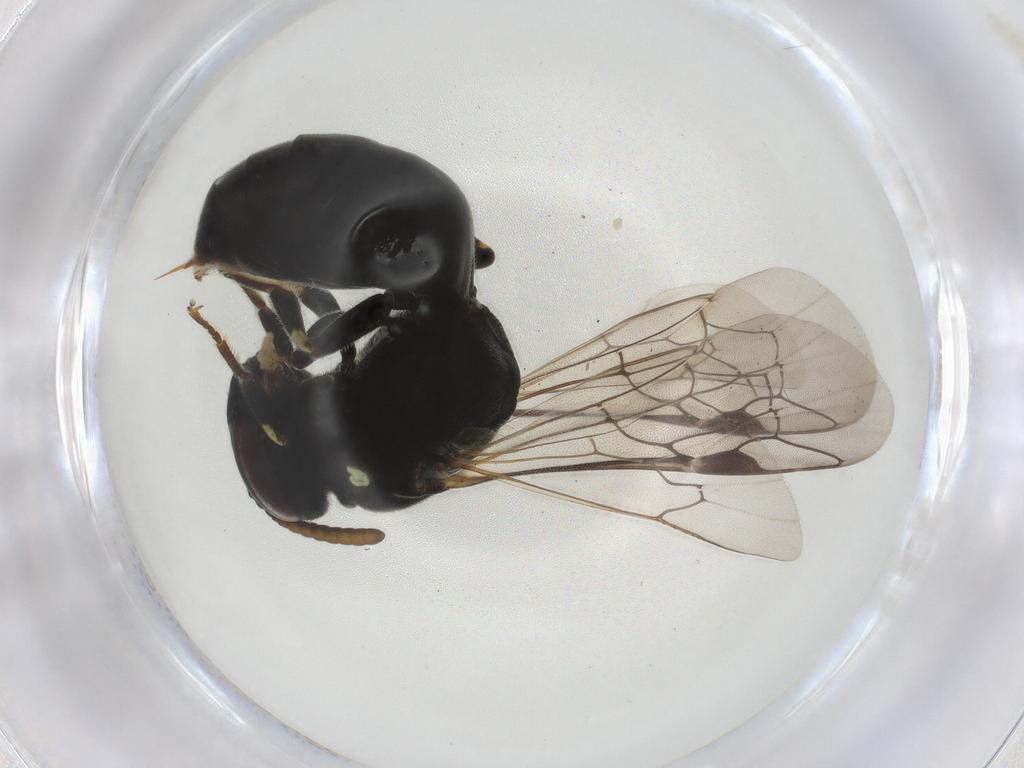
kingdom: Animalia
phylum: Arthropoda
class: Insecta
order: Hymenoptera
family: Colletidae
